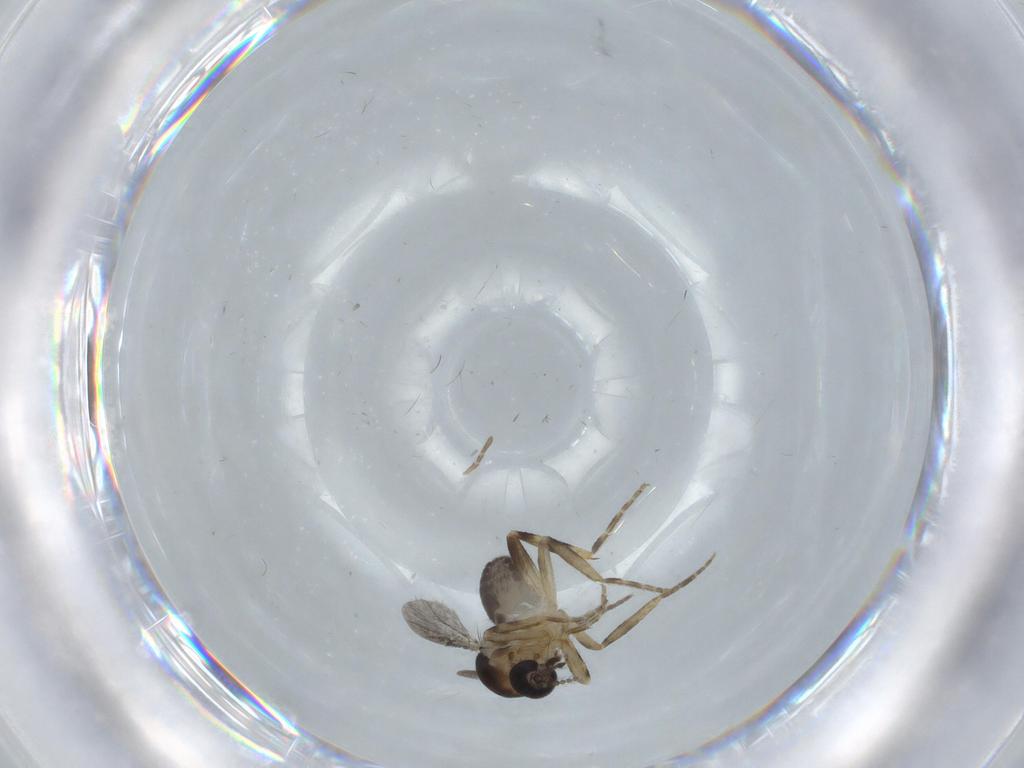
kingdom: Animalia
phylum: Arthropoda
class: Insecta
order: Diptera
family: Ceratopogonidae
